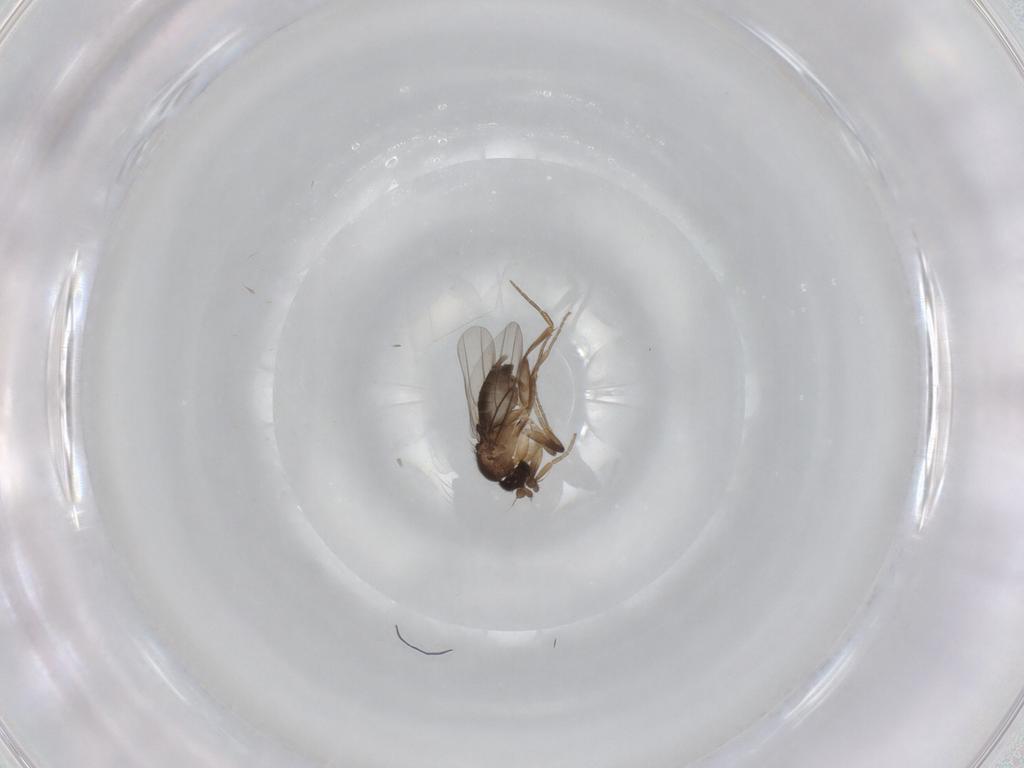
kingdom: Animalia
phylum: Arthropoda
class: Insecta
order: Diptera
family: Phoridae
